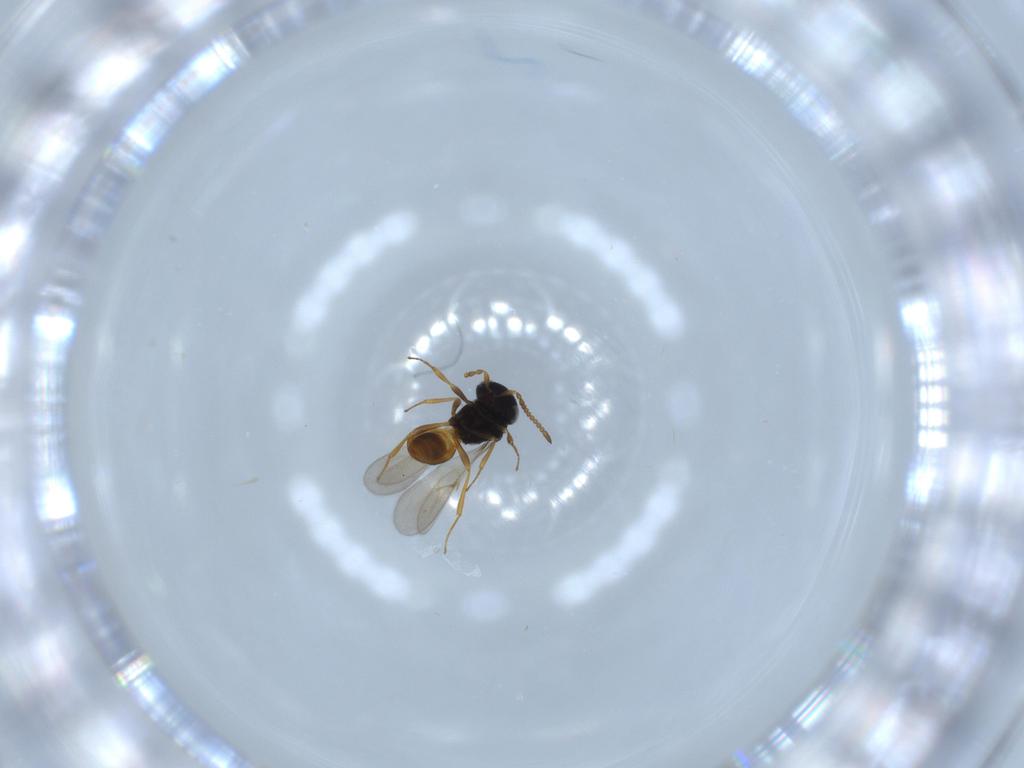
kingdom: Animalia
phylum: Arthropoda
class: Insecta
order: Hymenoptera
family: Scelionidae
